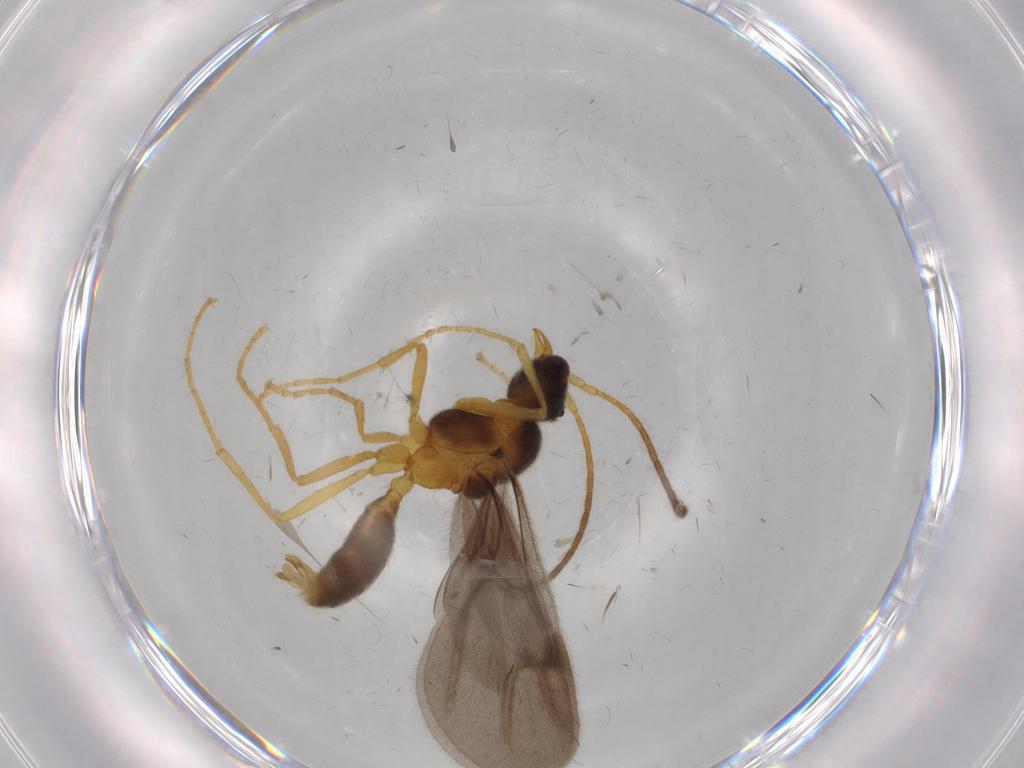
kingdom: Animalia
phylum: Arthropoda
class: Insecta
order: Hymenoptera
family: Formicidae
